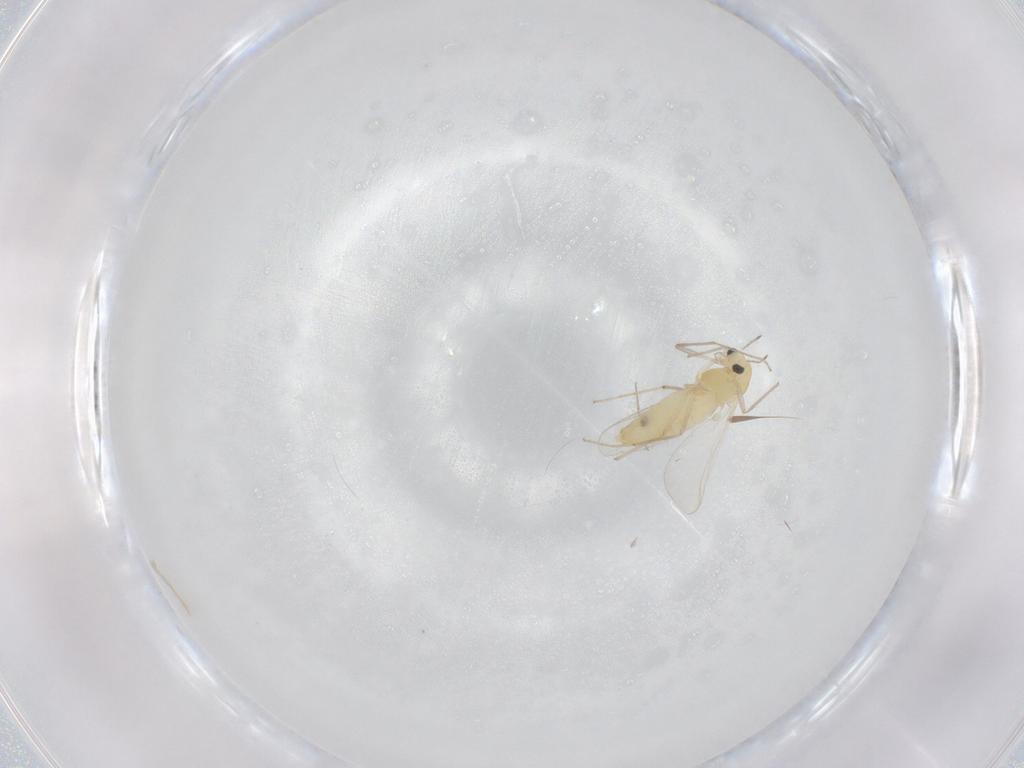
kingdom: Animalia
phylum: Arthropoda
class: Insecta
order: Diptera
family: Chironomidae
